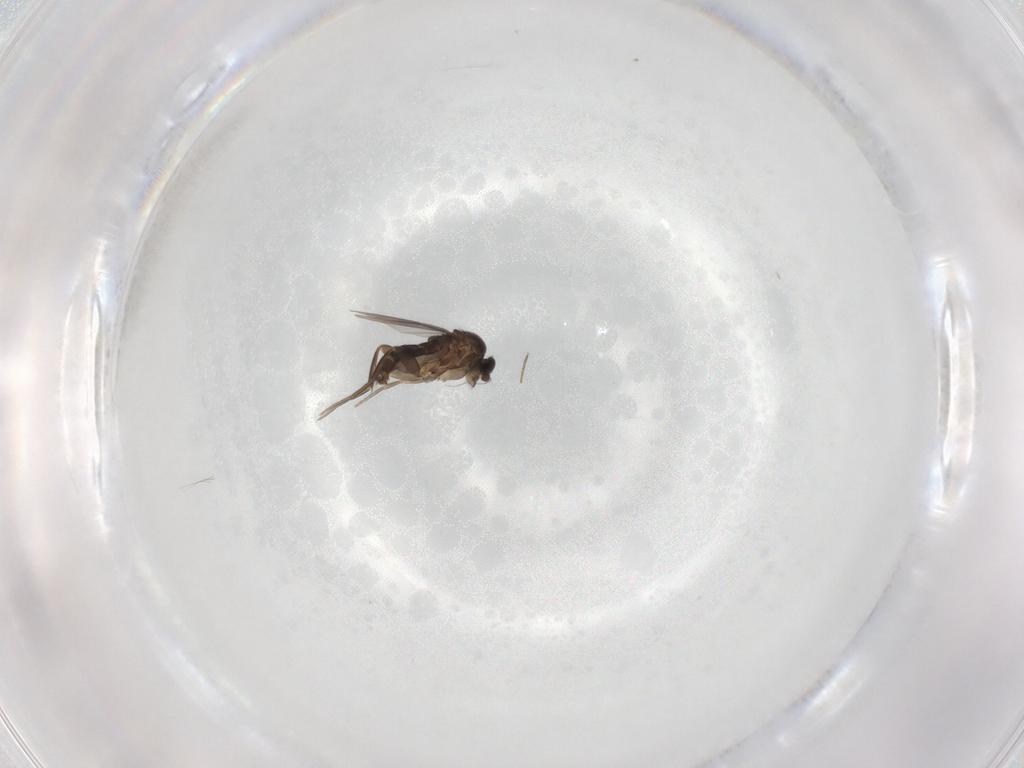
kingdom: Animalia
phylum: Arthropoda
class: Insecta
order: Diptera
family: Phoridae
